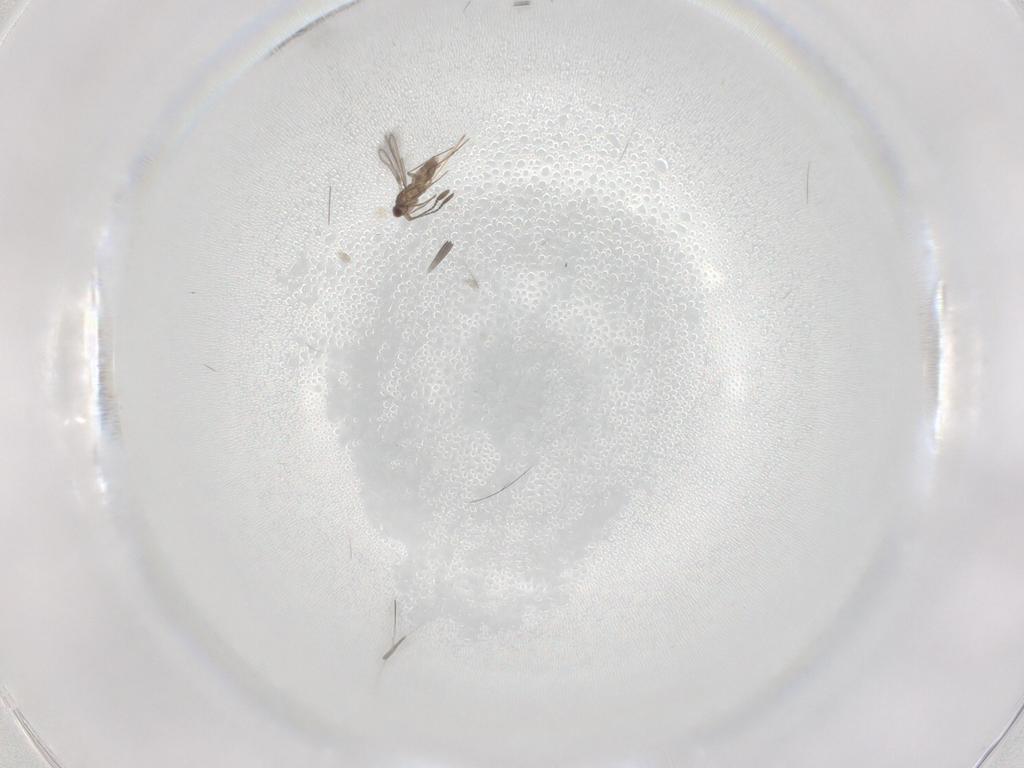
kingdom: Animalia
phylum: Arthropoda
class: Insecta
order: Hymenoptera
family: Mymaridae
